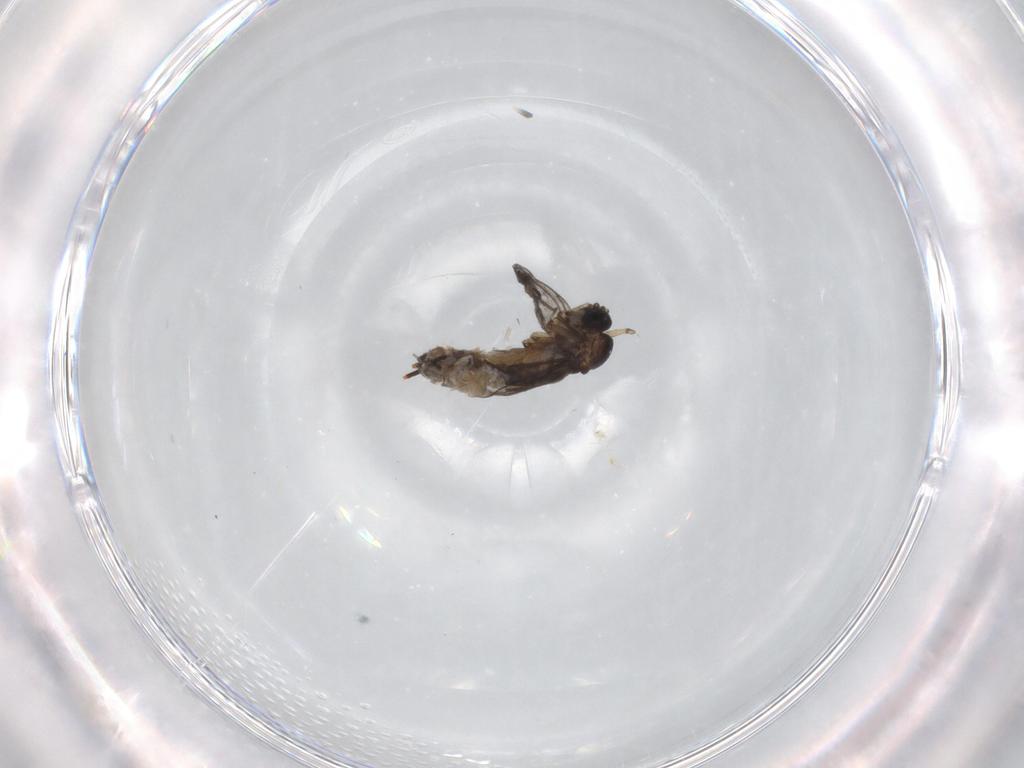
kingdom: Animalia
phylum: Arthropoda
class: Insecta
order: Diptera
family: Sciaridae
